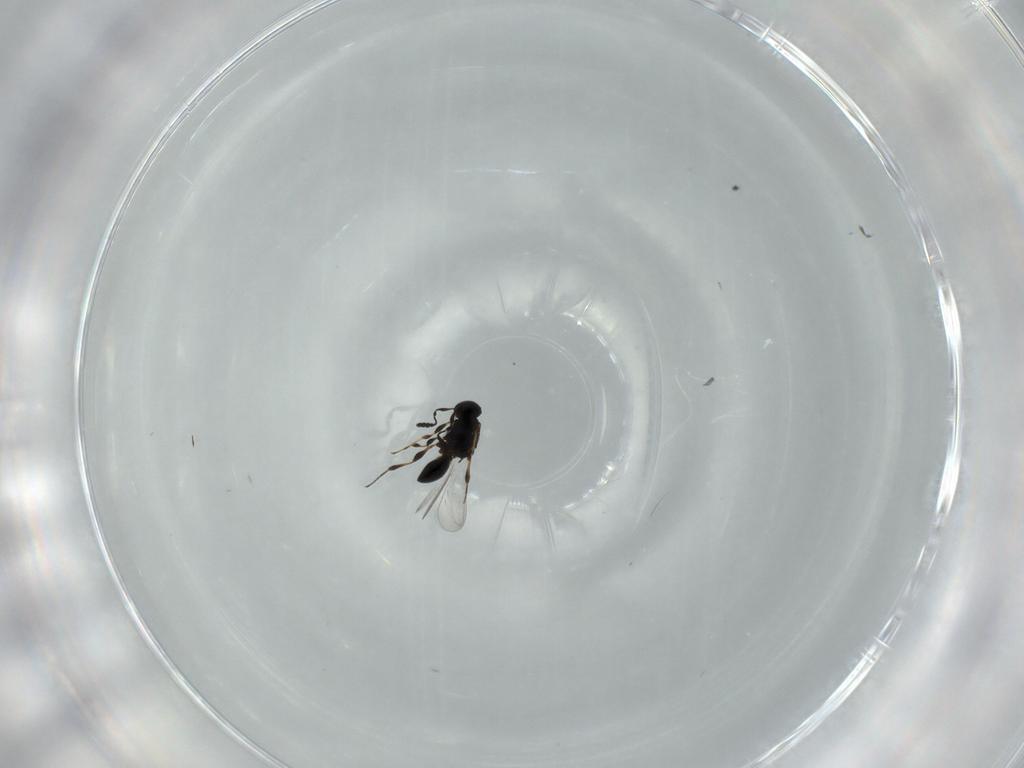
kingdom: Animalia
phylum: Arthropoda
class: Insecta
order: Hymenoptera
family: Platygastridae
